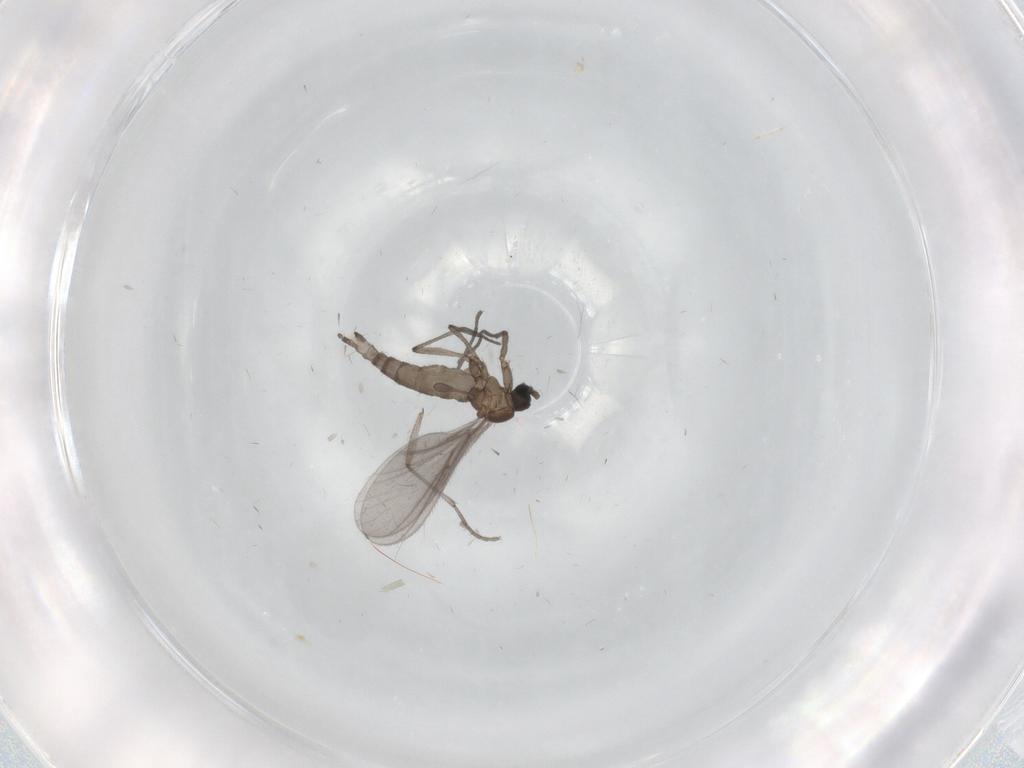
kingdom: Animalia
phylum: Arthropoda
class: Insecta
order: Diptera
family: Sciaridae
